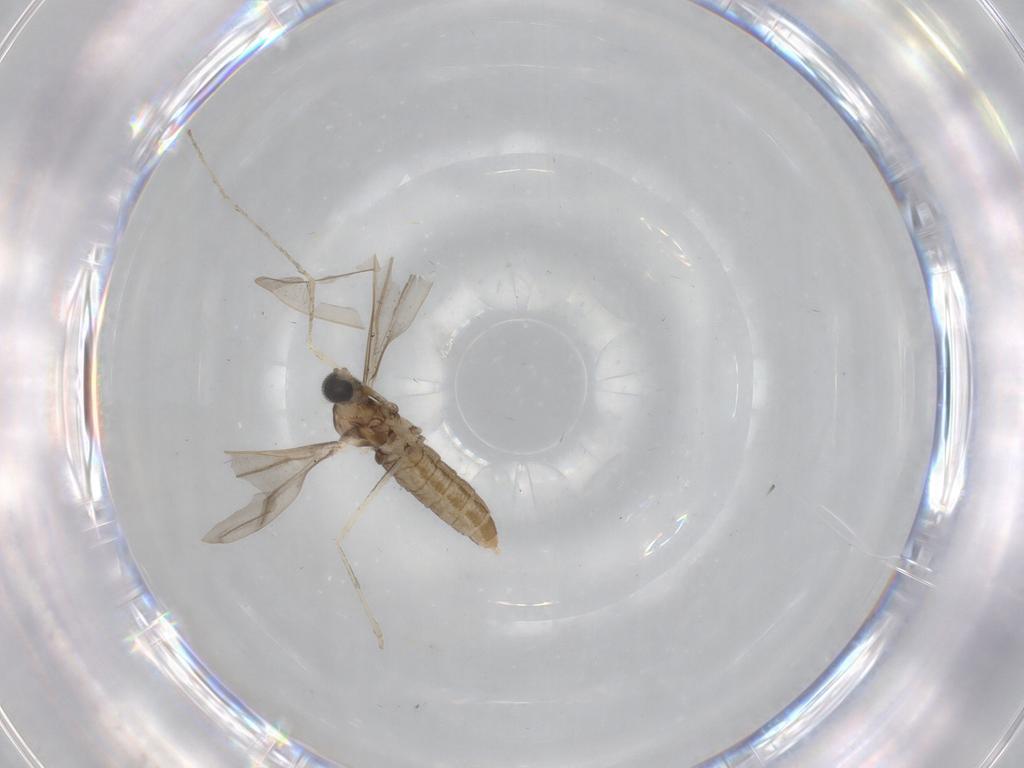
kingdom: Animalia
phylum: Arthropoda
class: Insecta
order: Diptera
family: Cecidomyiidae
